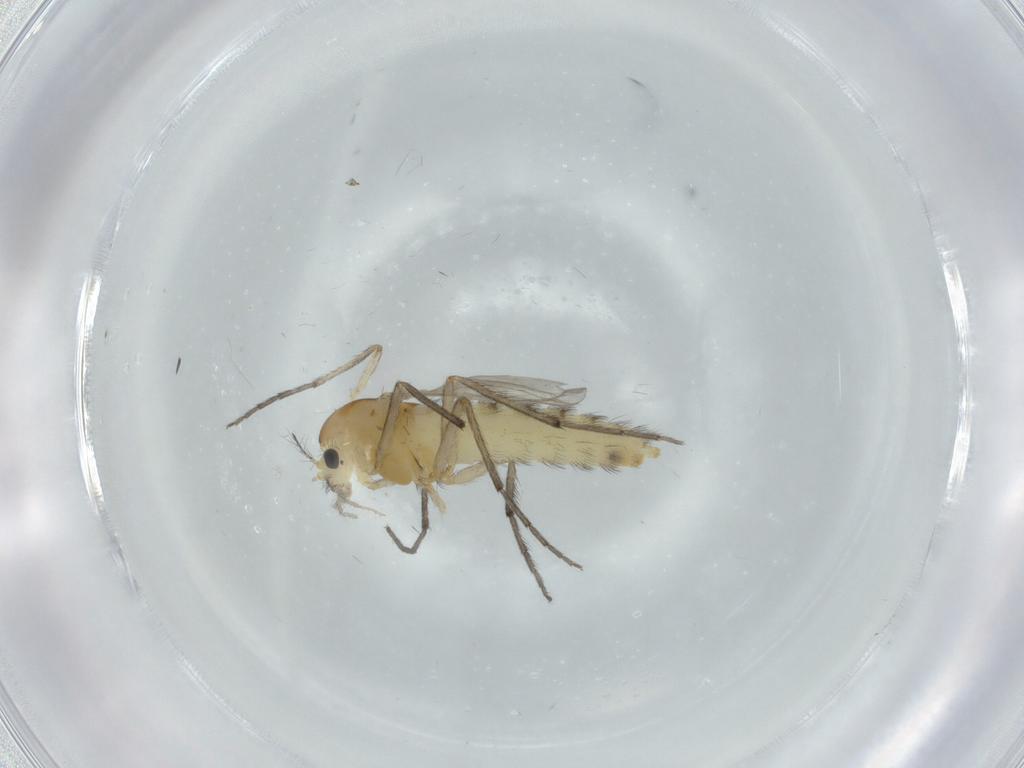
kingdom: Animalia
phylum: Arthropoda
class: Insecta
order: Diptera
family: Chironomidae
